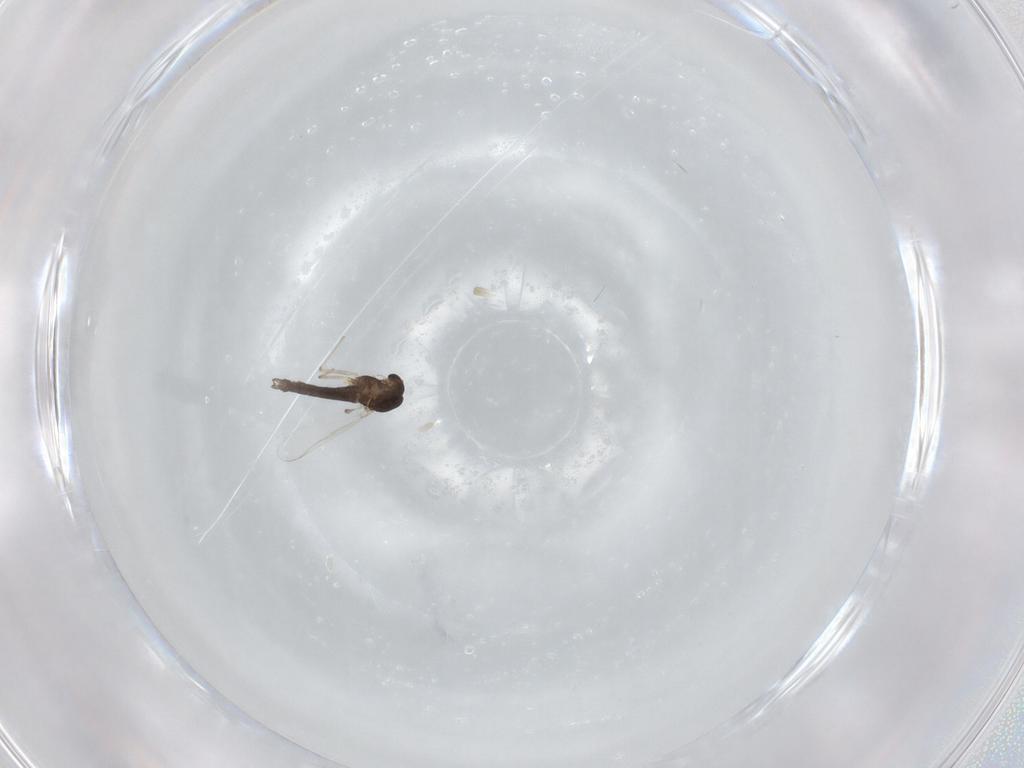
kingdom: Animalia
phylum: Arthropoda
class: Insecta
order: Diptera
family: Chironomidae
